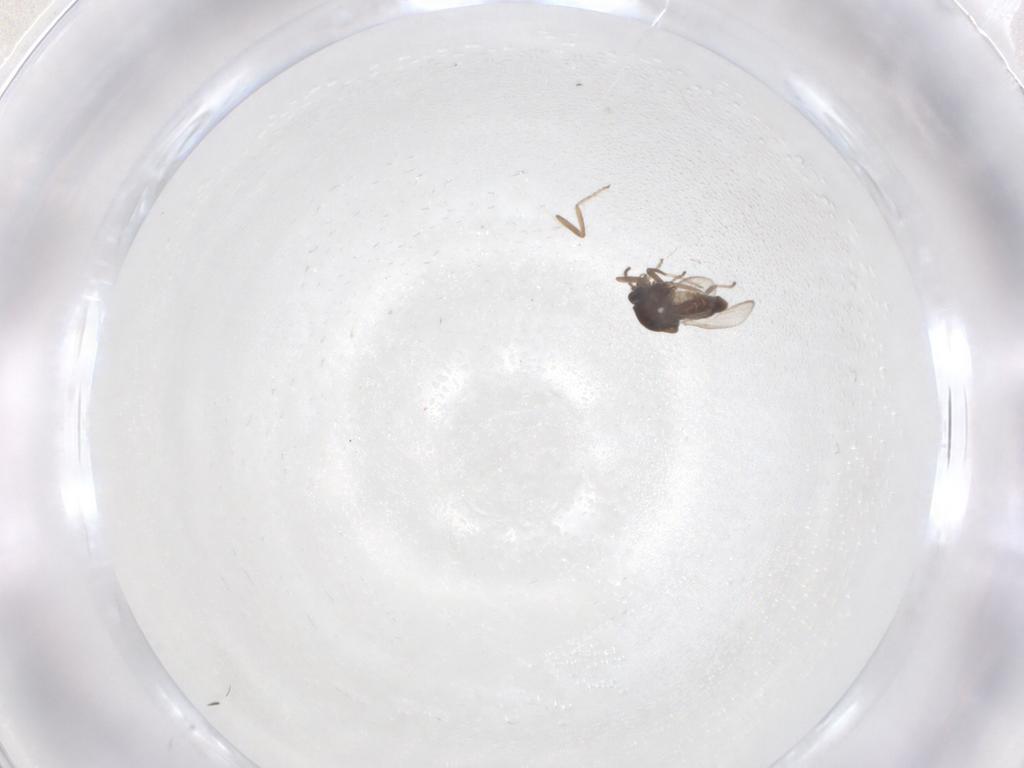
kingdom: Animalia
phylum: Arthropoda
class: Insecta
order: Diptera
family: Ceratopogonidae
